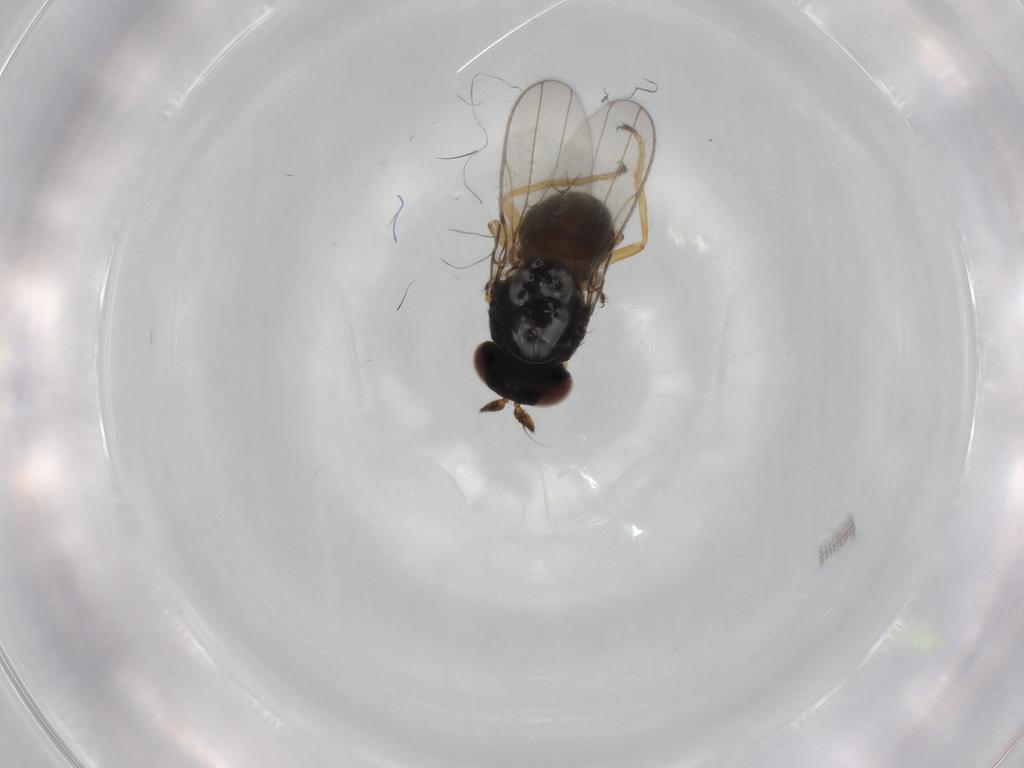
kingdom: Animalia
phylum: Arthropoda
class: Insecta
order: Diptera
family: Ephydridae
